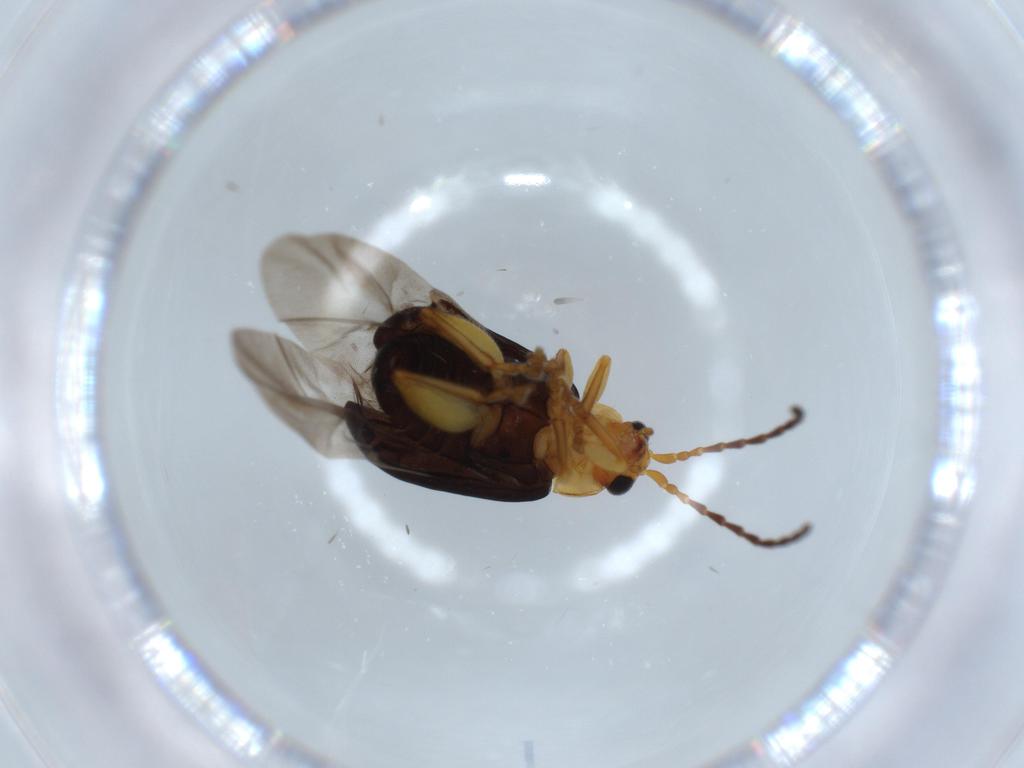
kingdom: Animalia
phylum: Arthropoda
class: Insecta
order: Coleoptera
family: Chrysomelidae
